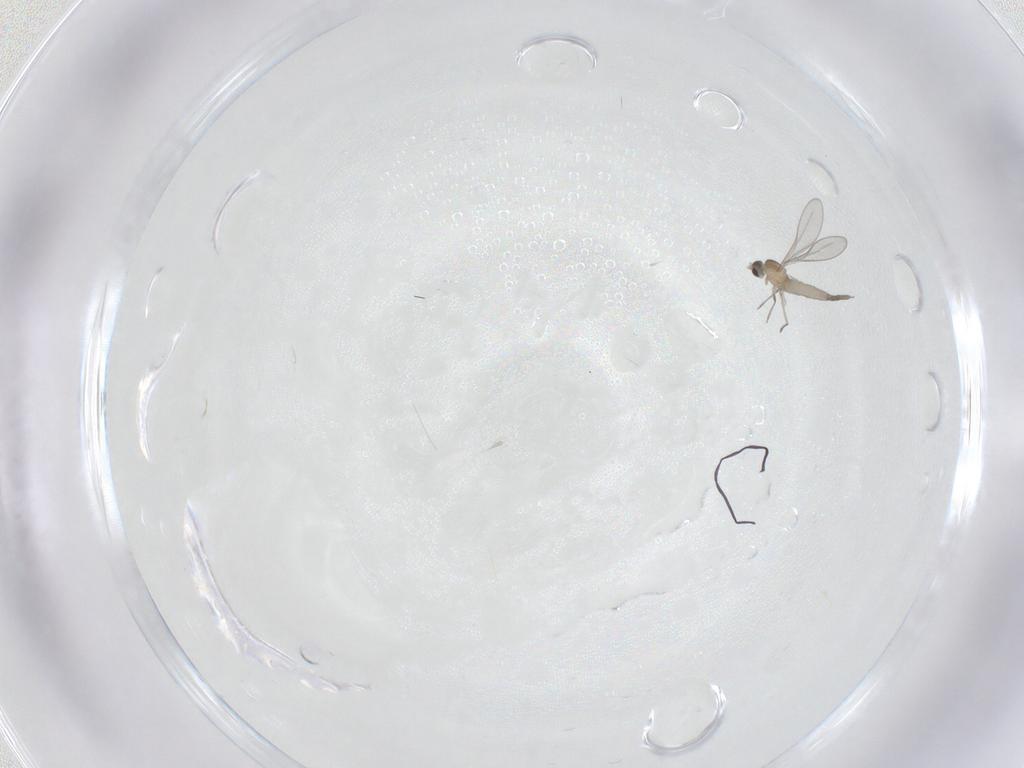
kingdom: Animalia
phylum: Arthropoda
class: Insecta
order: Diptera
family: Cecidomyiidae
